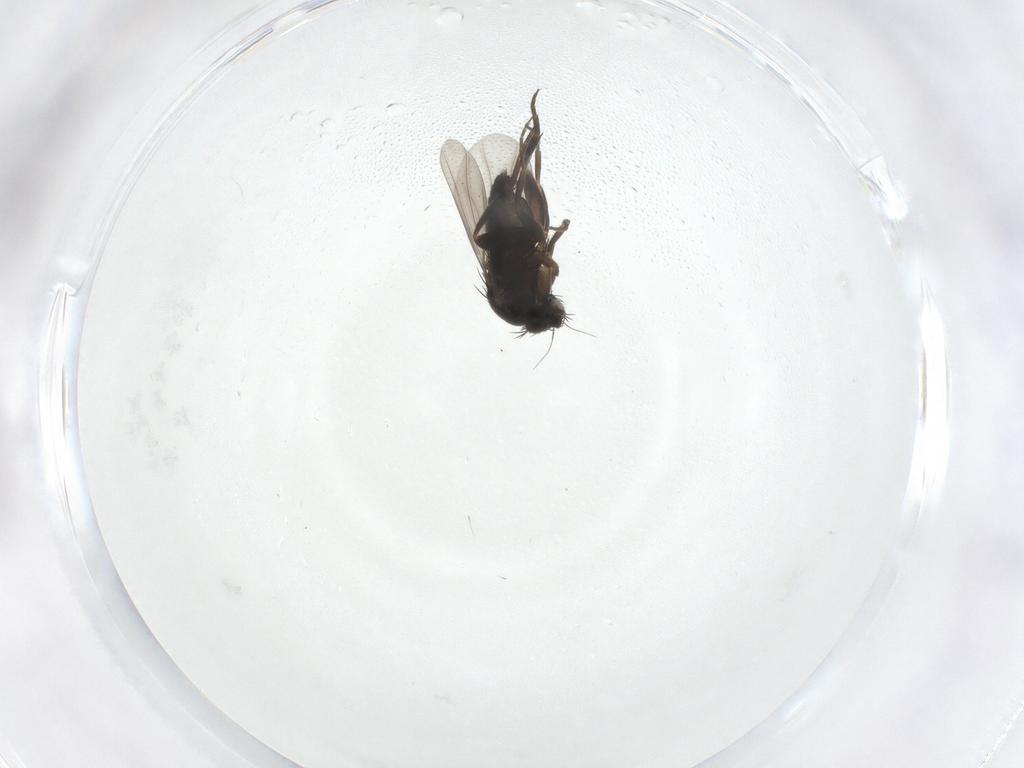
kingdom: Animalia
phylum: Arthropoda
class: Insecta
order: Diptera
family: Phoridae
